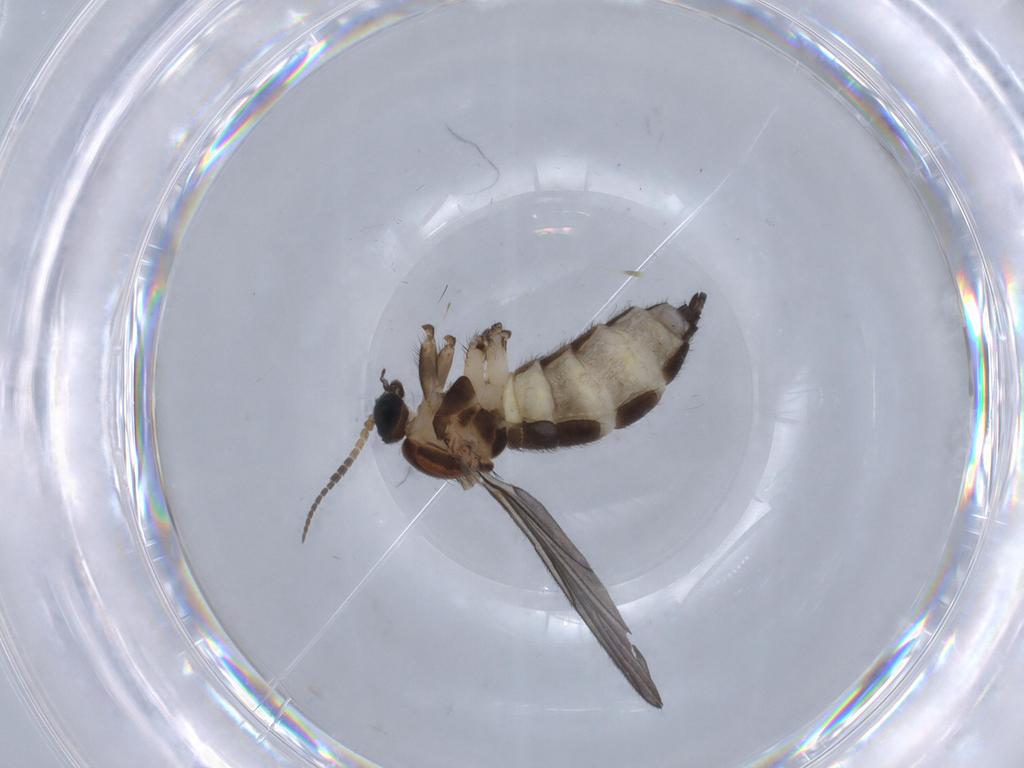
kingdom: Animalia
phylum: Arthropoda
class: Insecta
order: Diptera
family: Sciaridae
